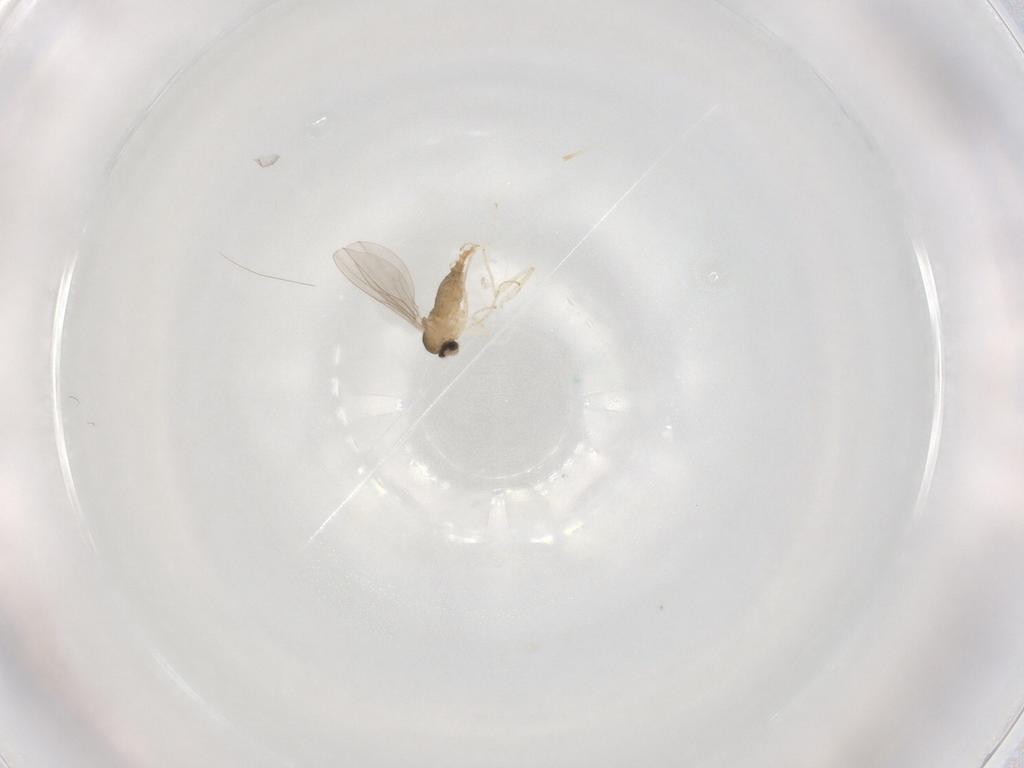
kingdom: Animalia
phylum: Arthropoda
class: Insecta
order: Diptera
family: Cecidomyiidae
